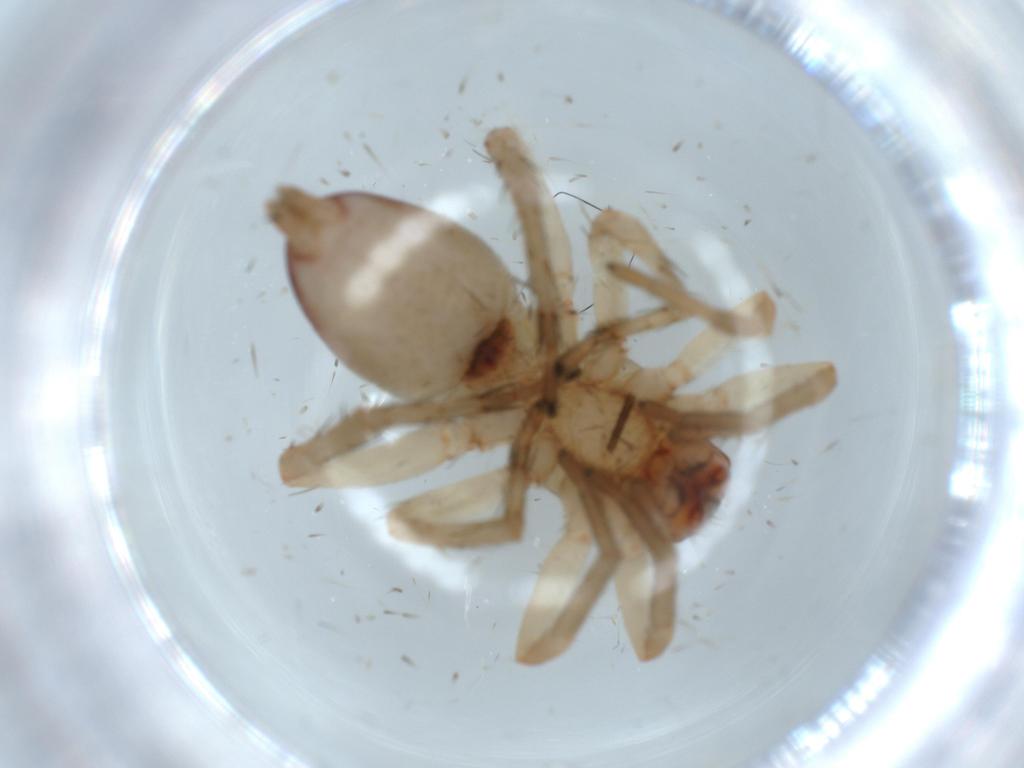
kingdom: Animalia
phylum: Arthropoda
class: Arachnida
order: Araneae
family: Clubionidae
